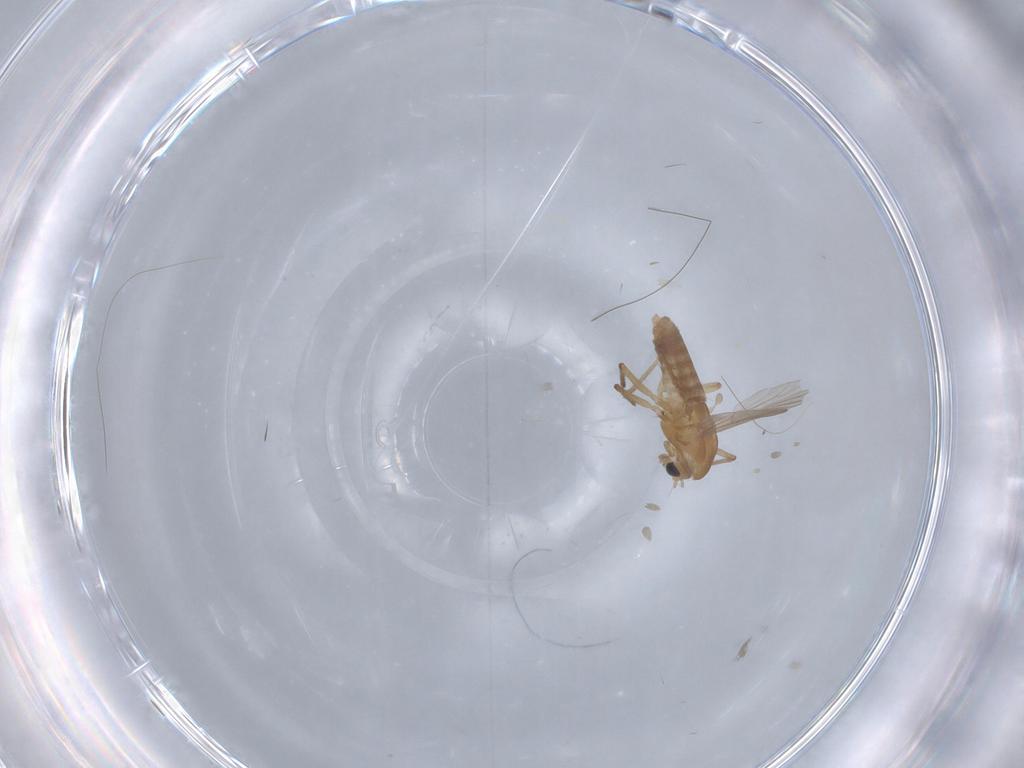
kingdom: Animalia
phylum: Arthropoda
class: Insecta
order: Diptera
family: Chironomidae
